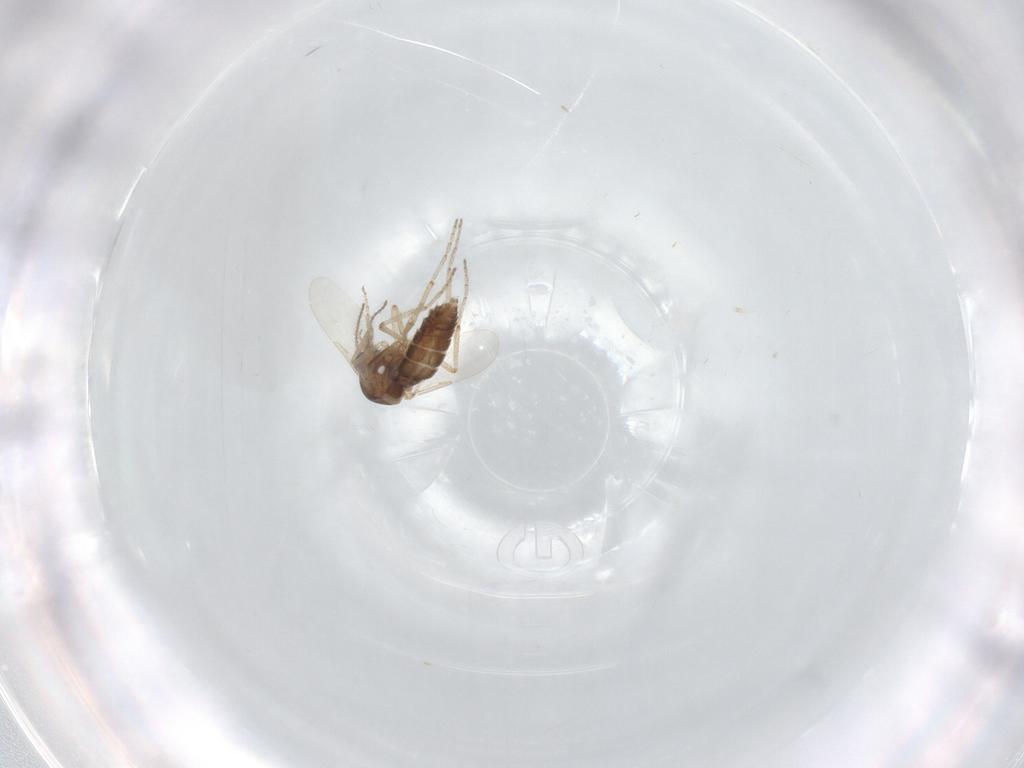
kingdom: Animalia
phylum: Arthropoda
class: Insecta
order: Diptera
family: Ceratopogonidae
